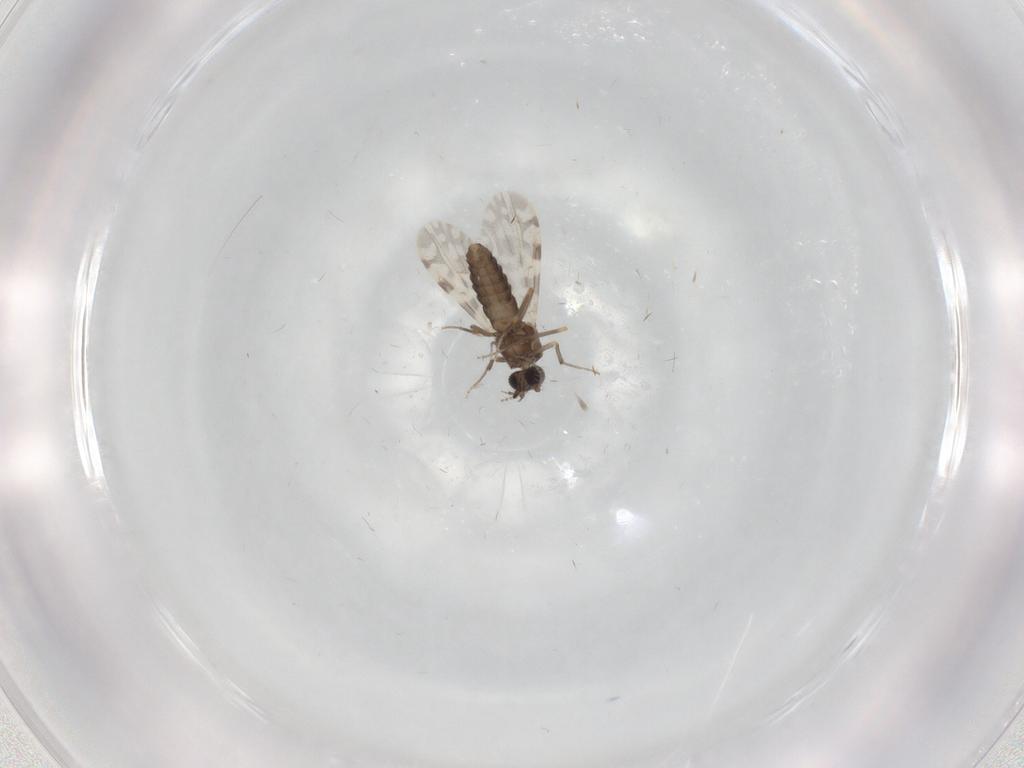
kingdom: Animalia
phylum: Arthropoda
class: Insecta
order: Diptera
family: Ceratopogonidae
